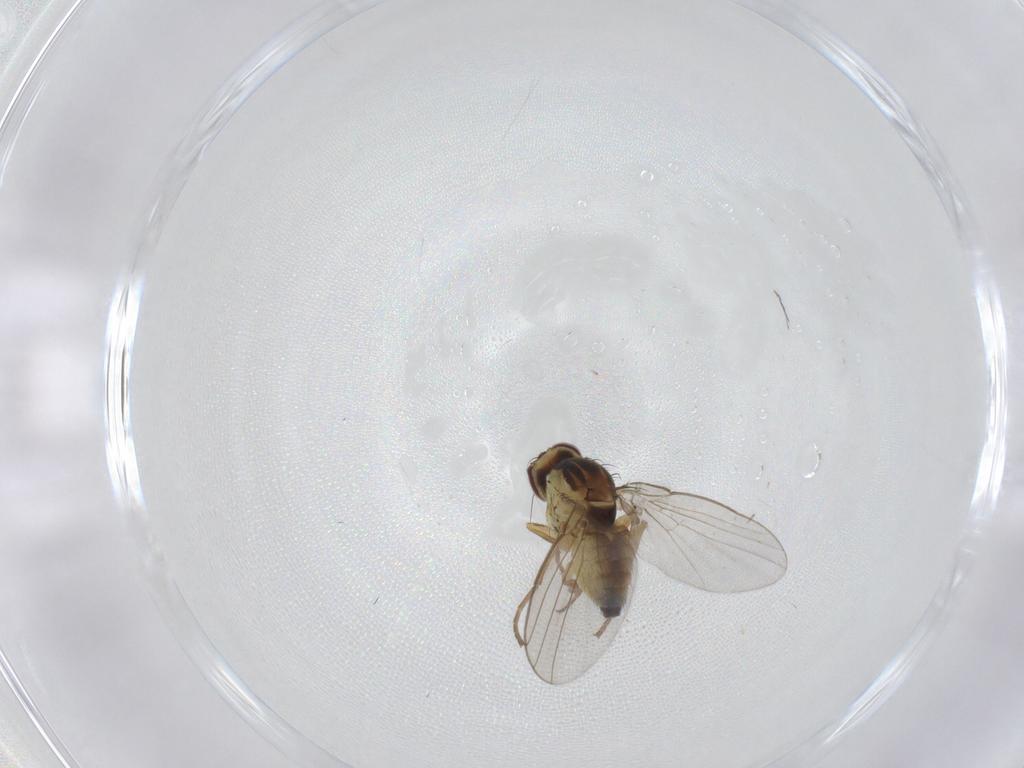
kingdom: Animalia
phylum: Arthropoda
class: Insecta
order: Diptera
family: Agromyzidae
